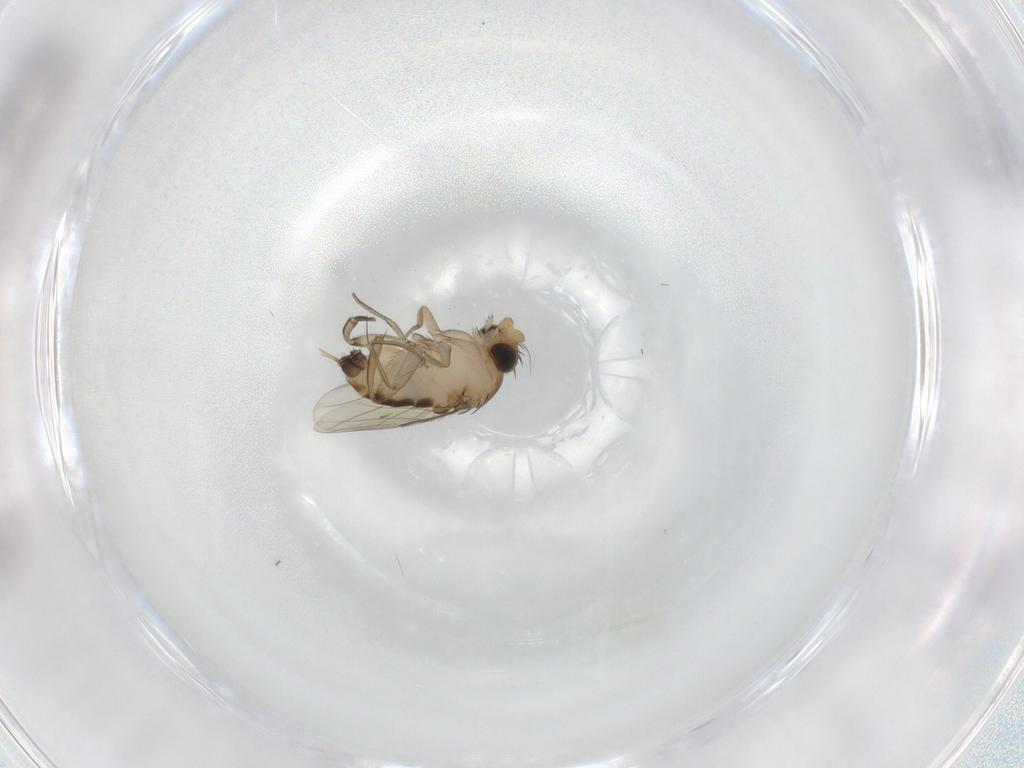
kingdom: Animalia
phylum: Arthropoda
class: Insecta
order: Diptera
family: Phoridae
